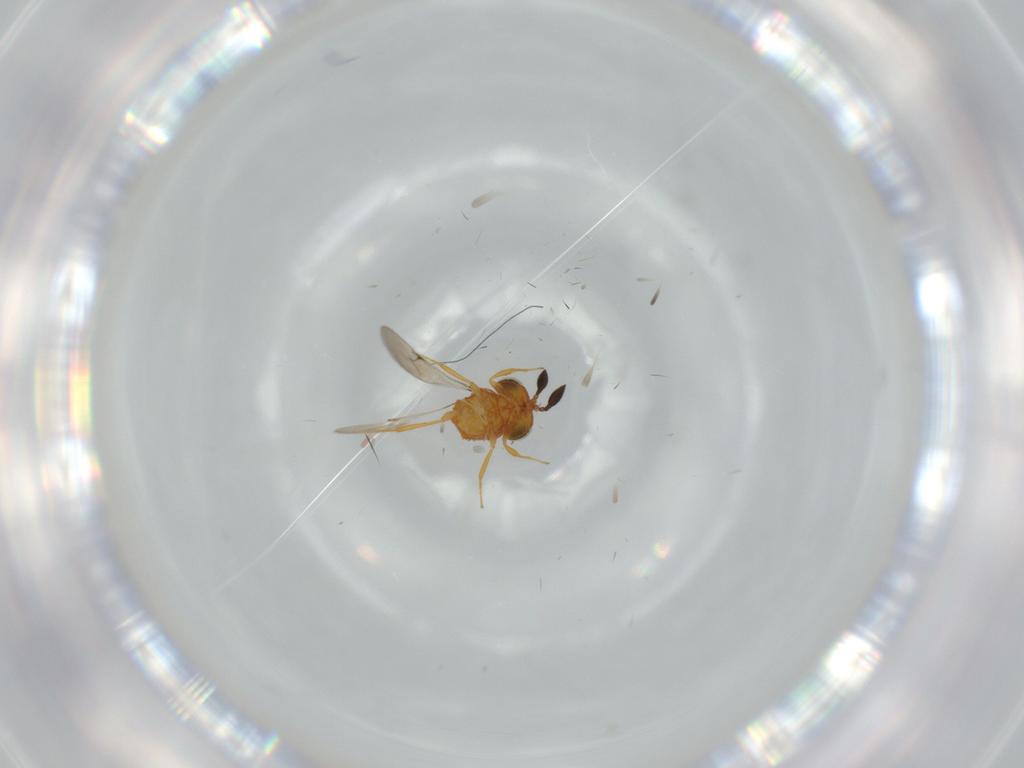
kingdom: Animalia
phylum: Arthropoda
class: Insecta
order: Hymenoptera
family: Scelionidae
